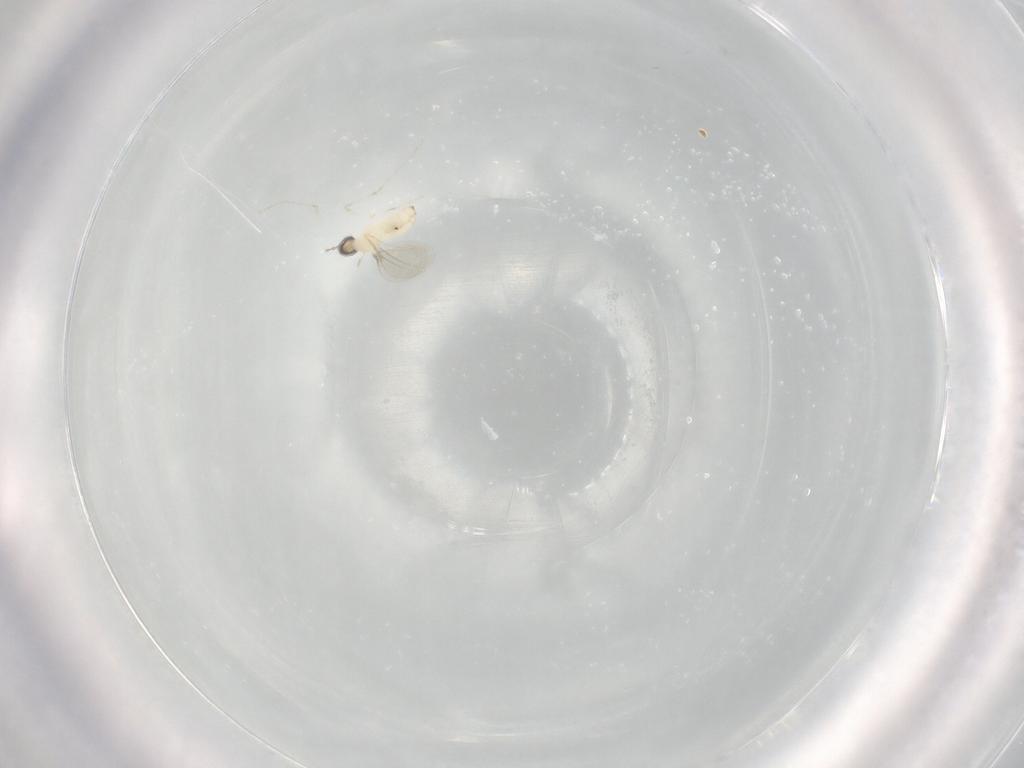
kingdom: Animalia
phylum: Arthropoda
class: Insecta
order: Diptera
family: Cecidomyiidae
